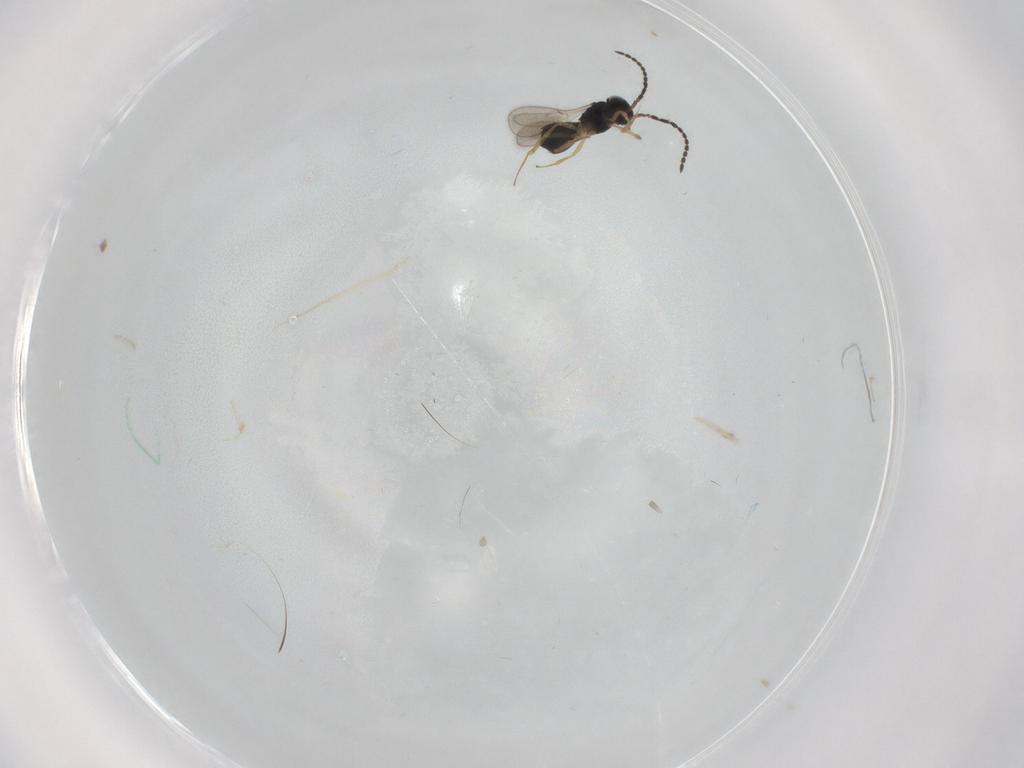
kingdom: Animalia
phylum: Arthropoda
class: Insecta
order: Hymenoptera
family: Scelionidae
